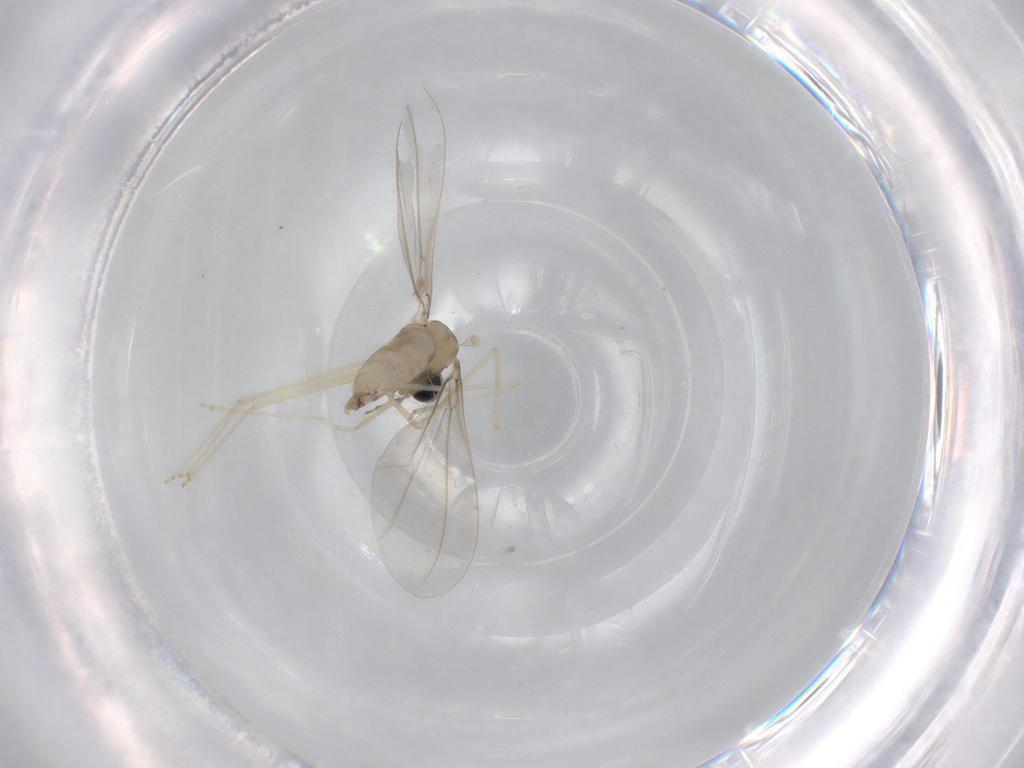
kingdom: Animalia
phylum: Arthropoda
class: Insecta
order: Diptera
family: Cecidomyiidae
